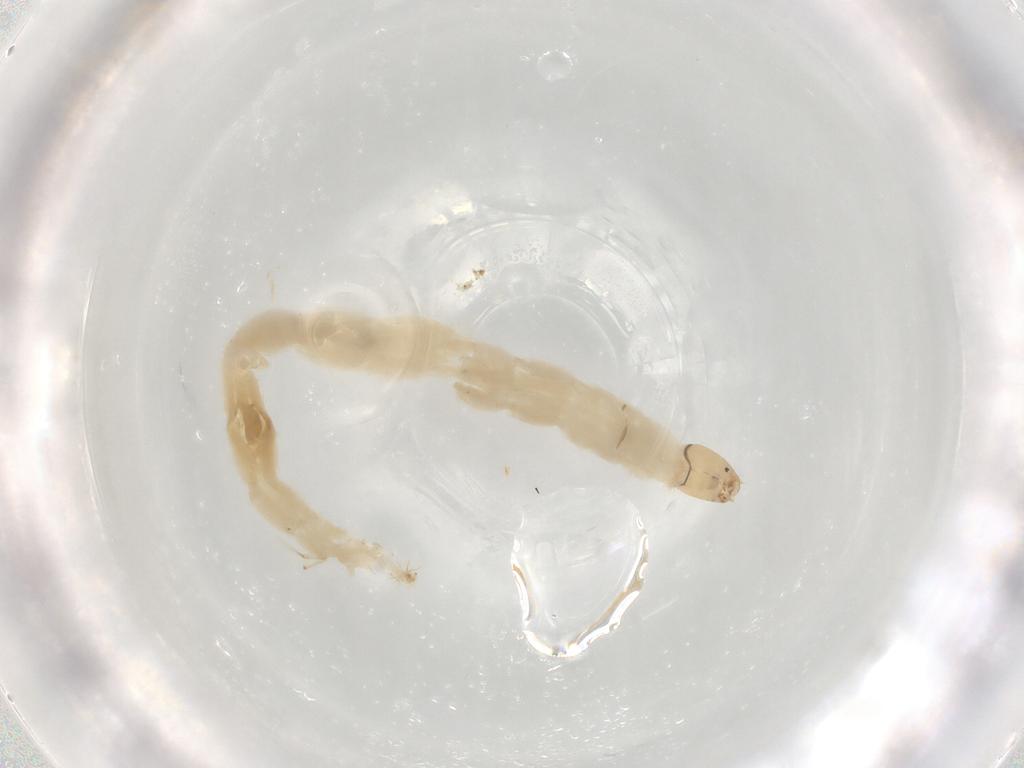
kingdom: Animalia
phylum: Arthropoda
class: Insecta
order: Diptera
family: Chironomidae
